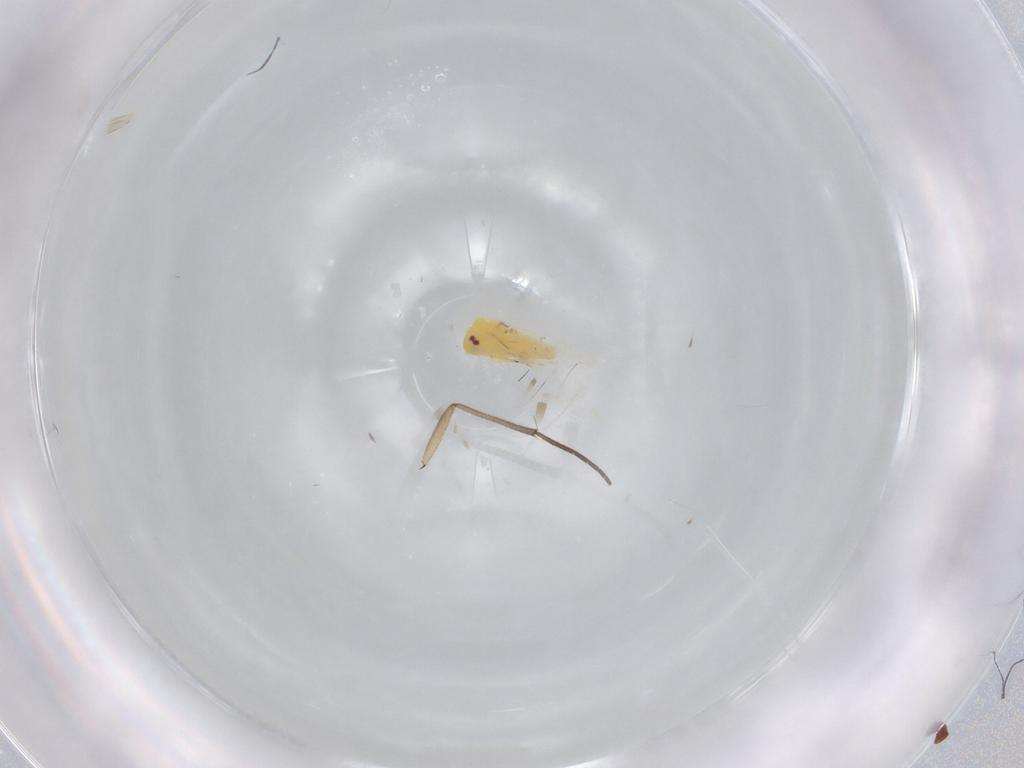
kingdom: Animalia
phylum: Arthropoda
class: Insecta
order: Hemiptera
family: Aleyrodidae
